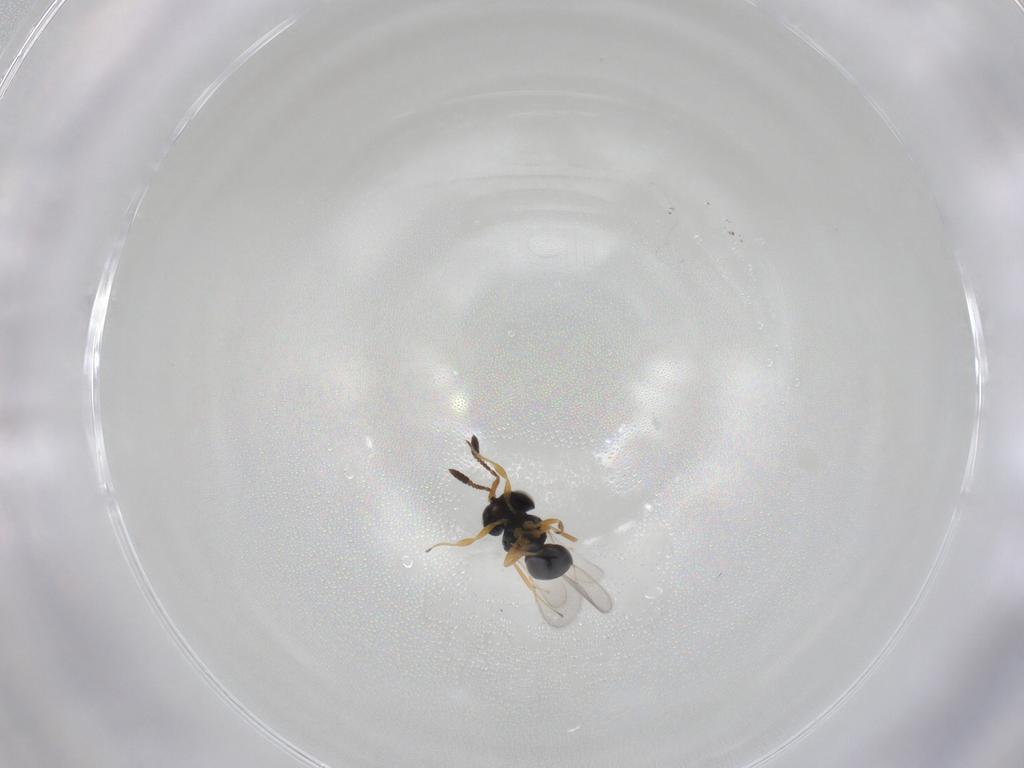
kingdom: Animalia
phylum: Arthropoda
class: Insecta
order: Hymenoptera
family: Scelionidae
